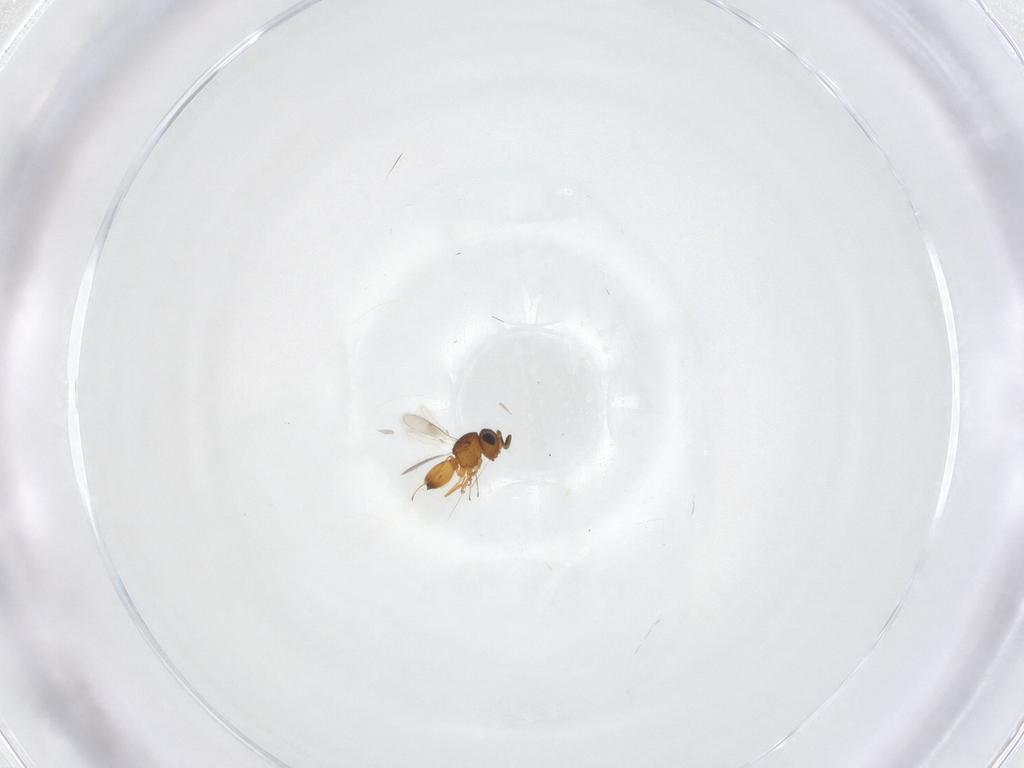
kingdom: Animalia
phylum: Arthropoda
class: Insecta
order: Hymenoptera
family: Scelionidae
